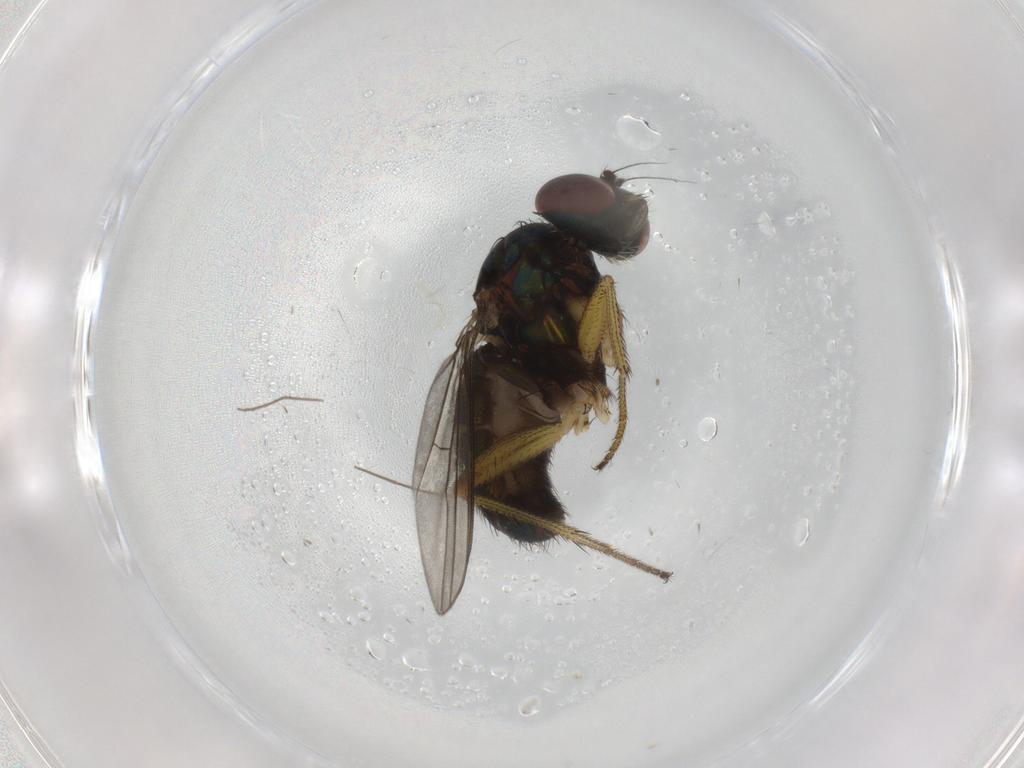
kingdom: Animalia
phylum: Arthropoda
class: Insecta
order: Diptera
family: Dolichopodidae
